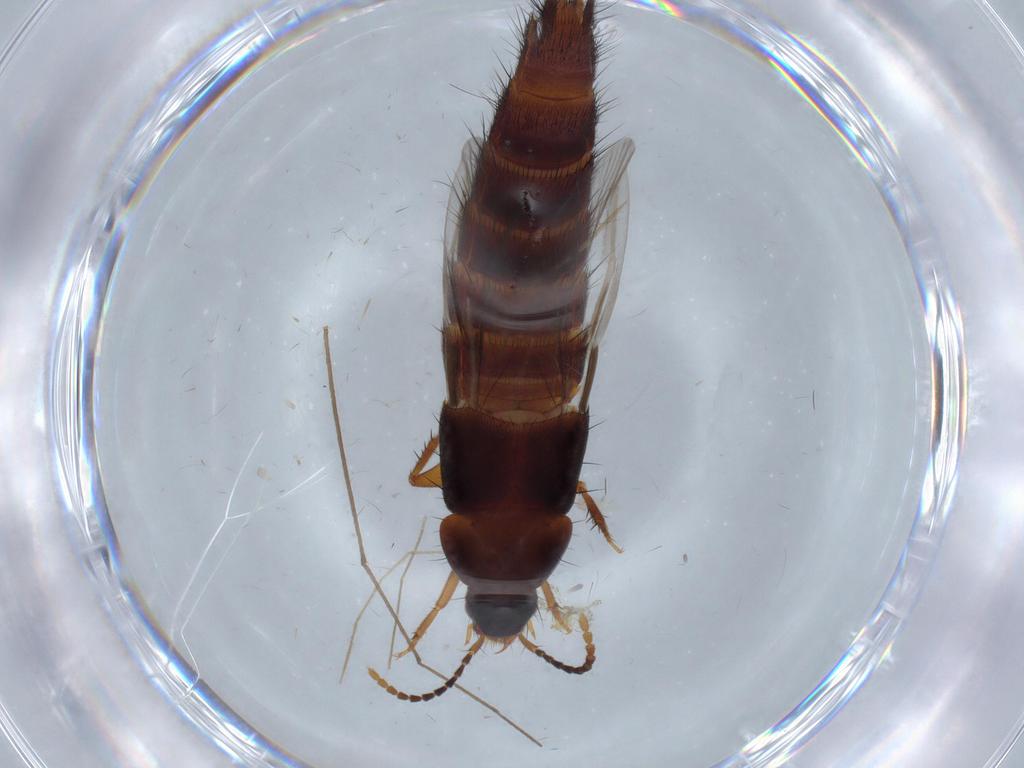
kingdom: Animalia
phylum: Arthropoda
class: Insecta
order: Coleoptera
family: Staphylinidae
